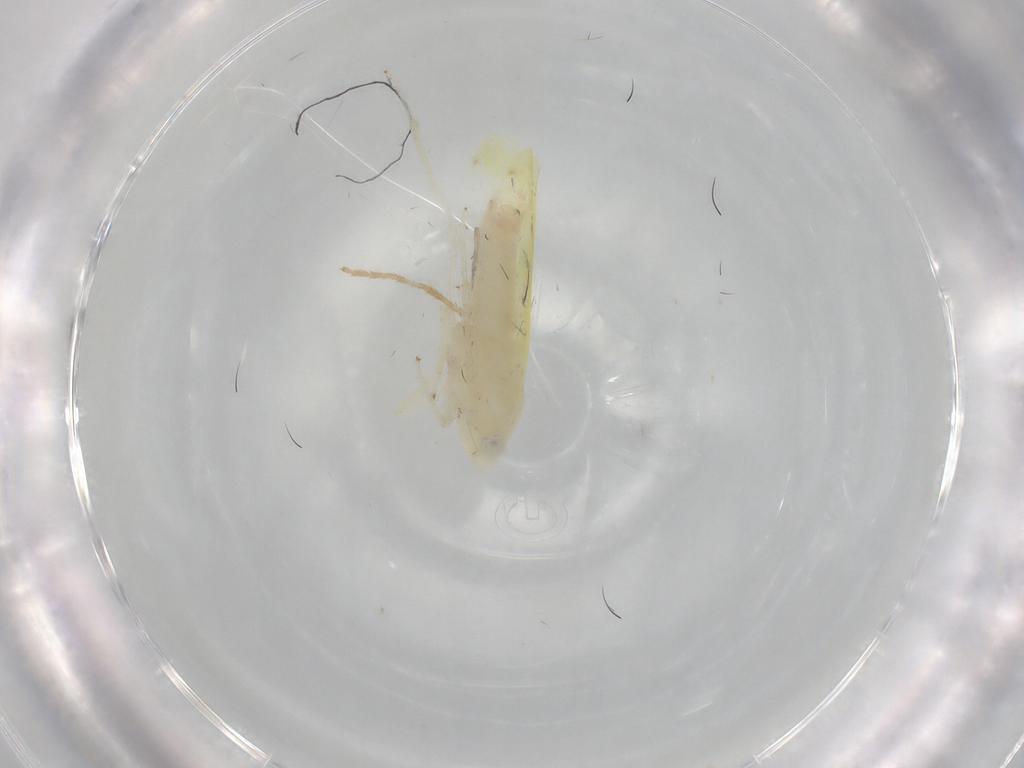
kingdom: Animalia
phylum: Arthropoda
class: Insecta
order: Hemiptera
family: Cicadellidae
